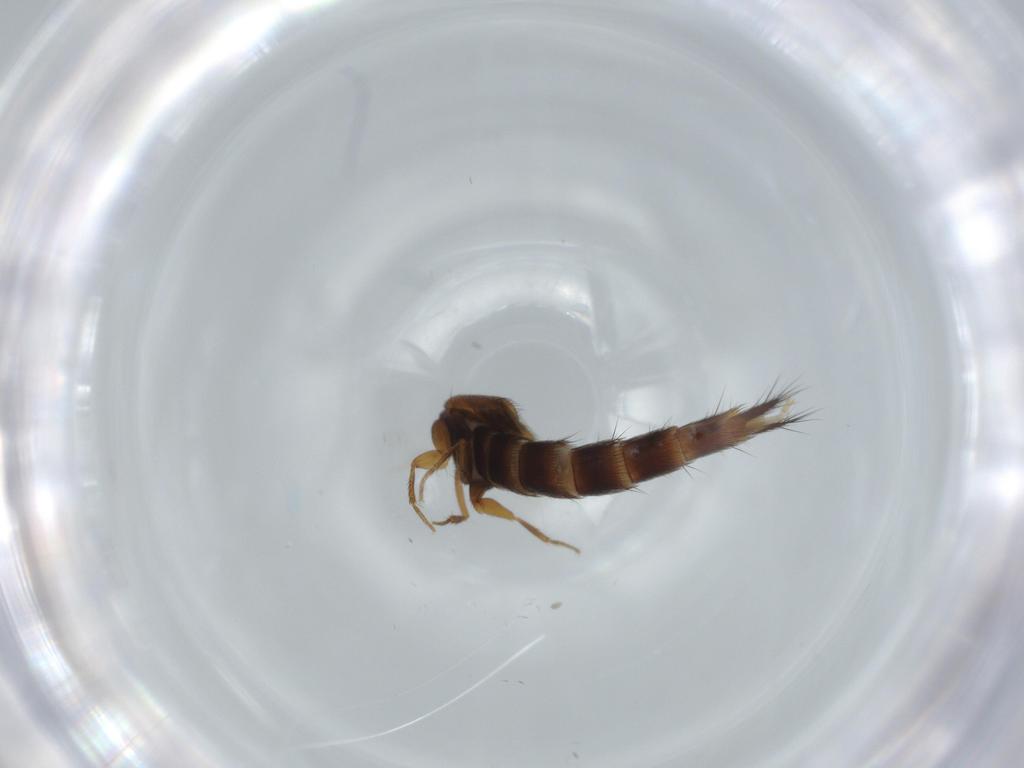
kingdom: Animalia
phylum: Arthropoda
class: Insecta
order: Coleoptera
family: Staphylinidae
